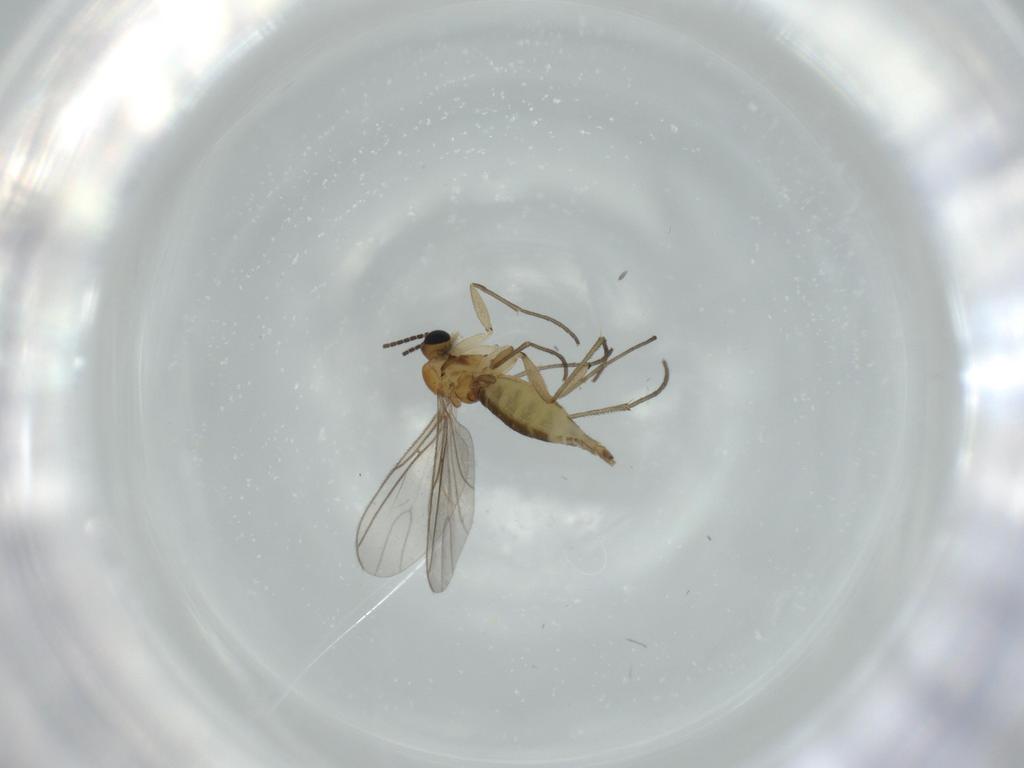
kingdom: Animalia
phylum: Arthropoda
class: Insecta
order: Diptera
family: Sciaridae
